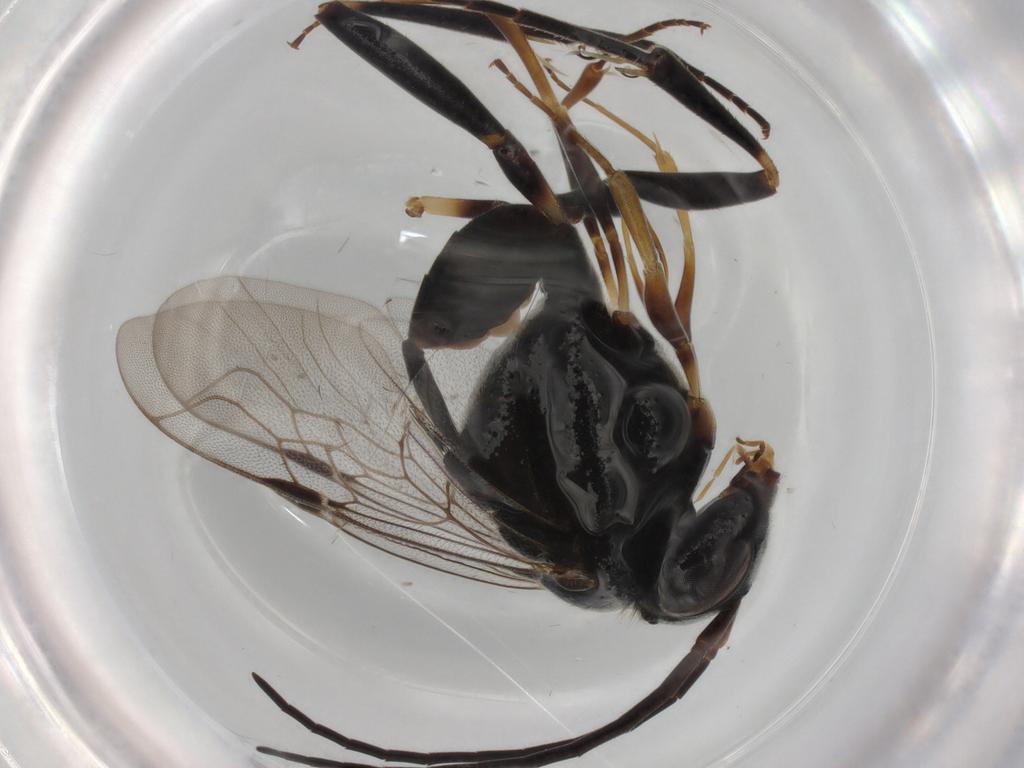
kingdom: Animalia
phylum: Arthropoda
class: Insecta
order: Hymenoptera
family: Evaniidae
